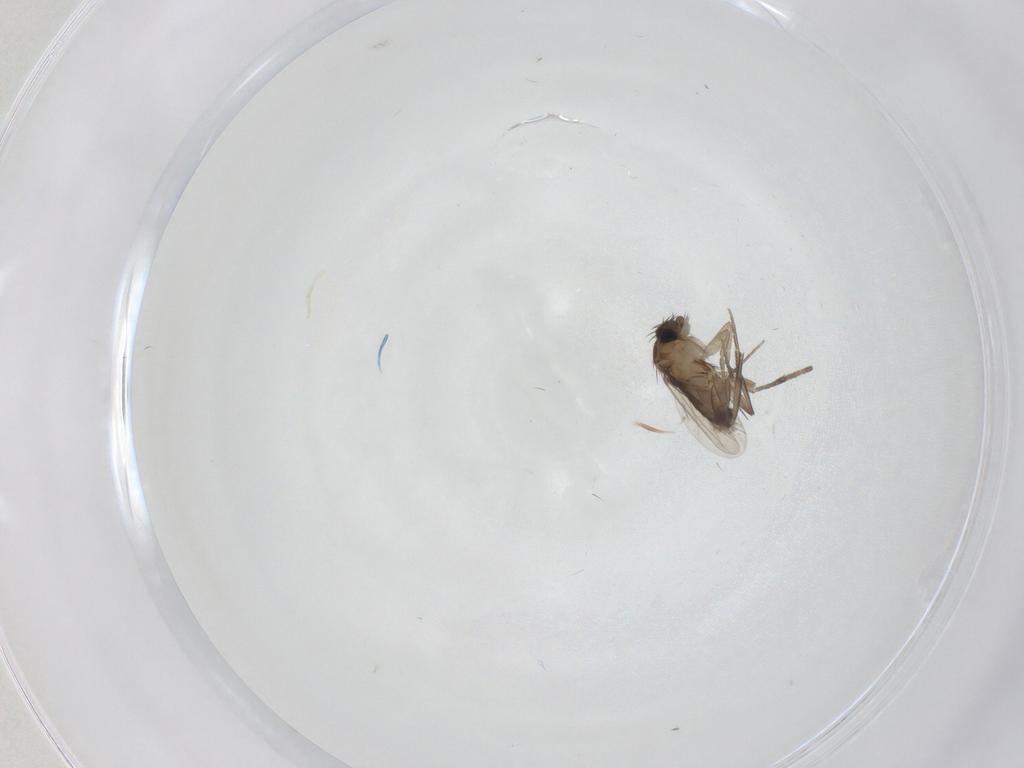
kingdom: Animalia
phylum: Arthropoda
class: Insecta
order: Diptera
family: Phoridae
